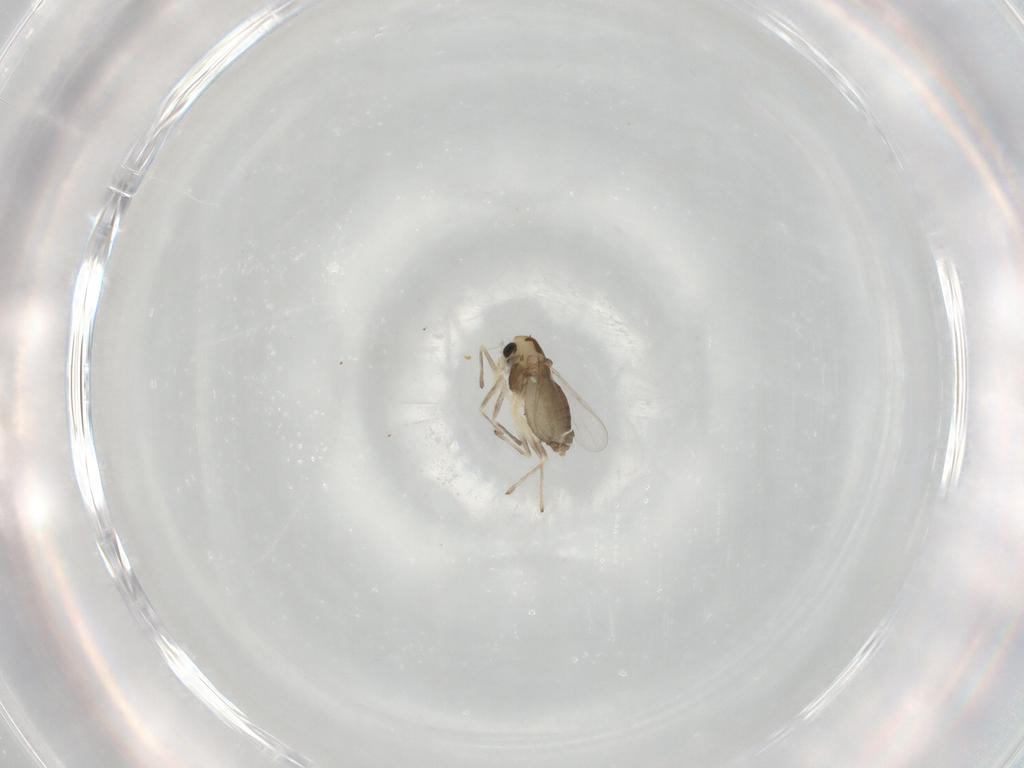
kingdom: Animalia
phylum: Arthropoda
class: Insecta
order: Diptera
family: Chironomidae
